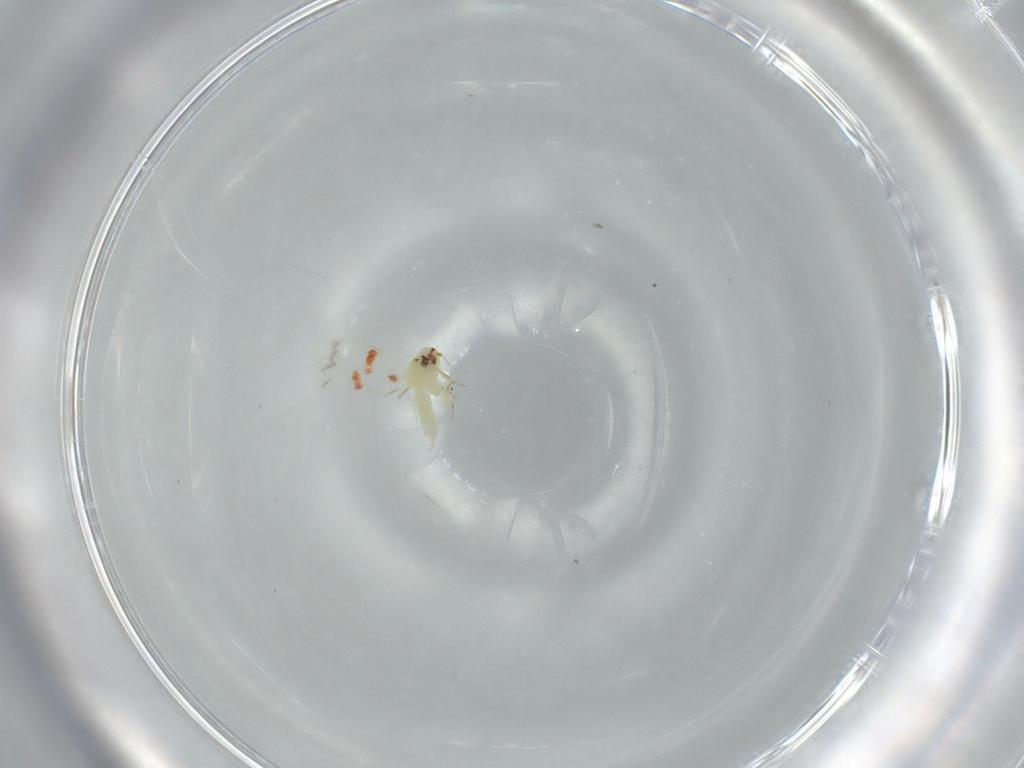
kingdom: Animalia
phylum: Arthropoda
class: Insecta
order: Hemiptera
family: Aleyrodidae
